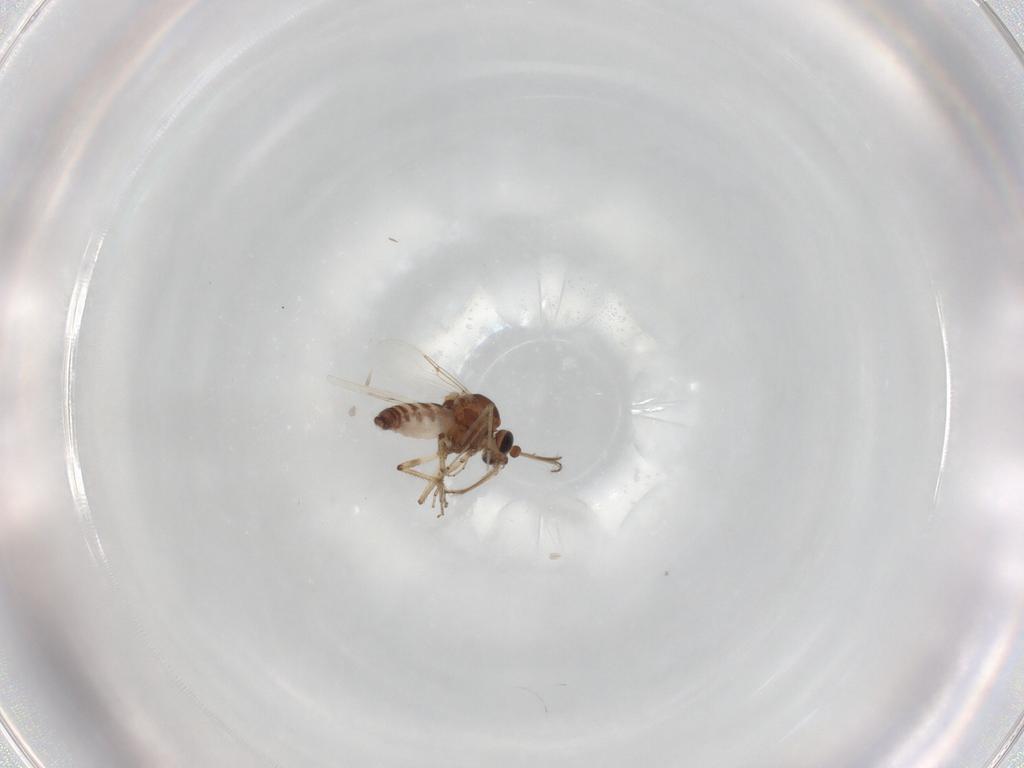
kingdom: Animalia
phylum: Arthropoda
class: Insecta
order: Diptera
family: Ceratopogonidae
